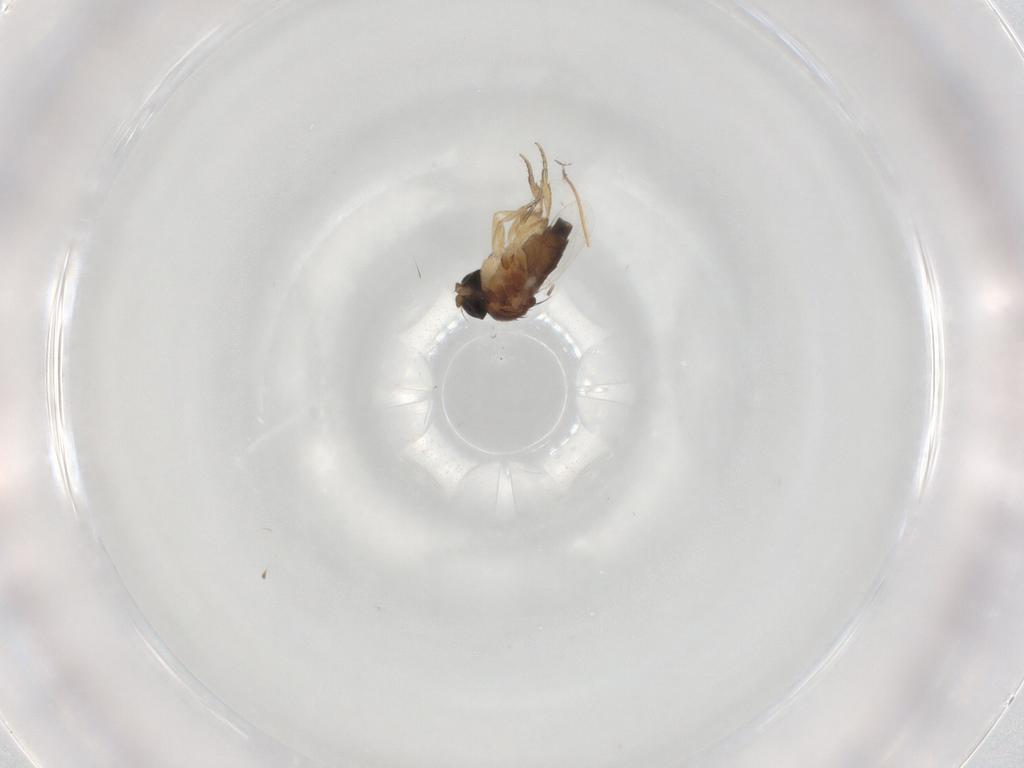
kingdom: Animalia
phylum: Arthropoda
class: Insecta
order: Diptera
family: Phoridae
